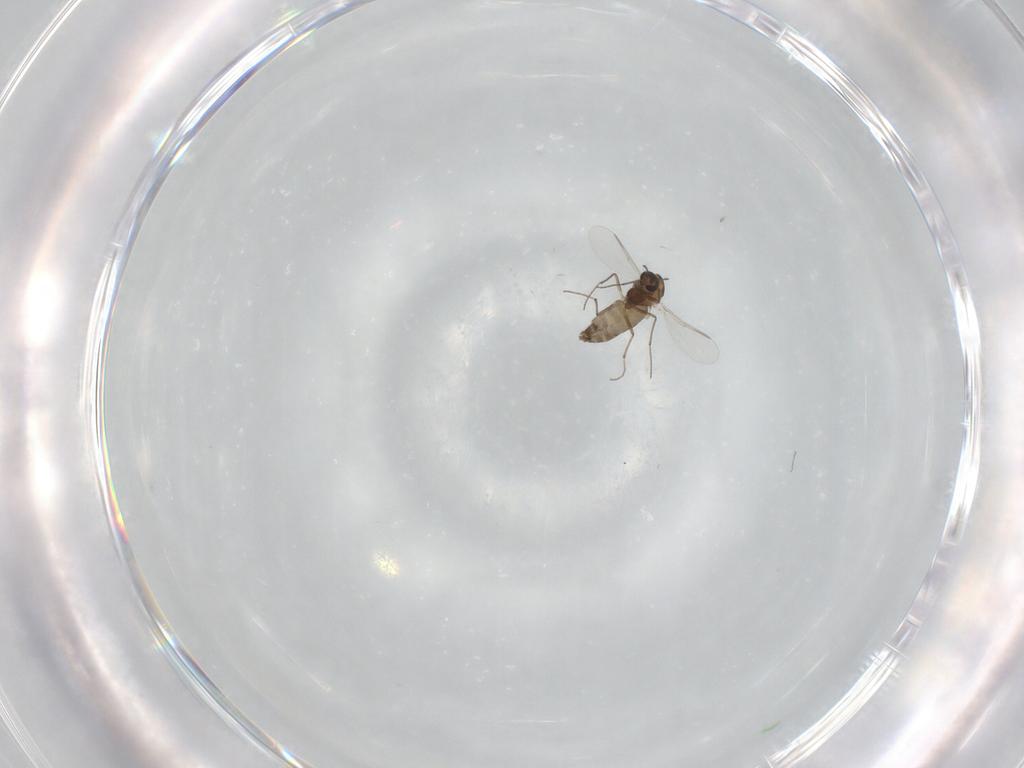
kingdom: Animalia
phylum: Arthropoda
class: Insecta
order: Diptera
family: Chironomidae
